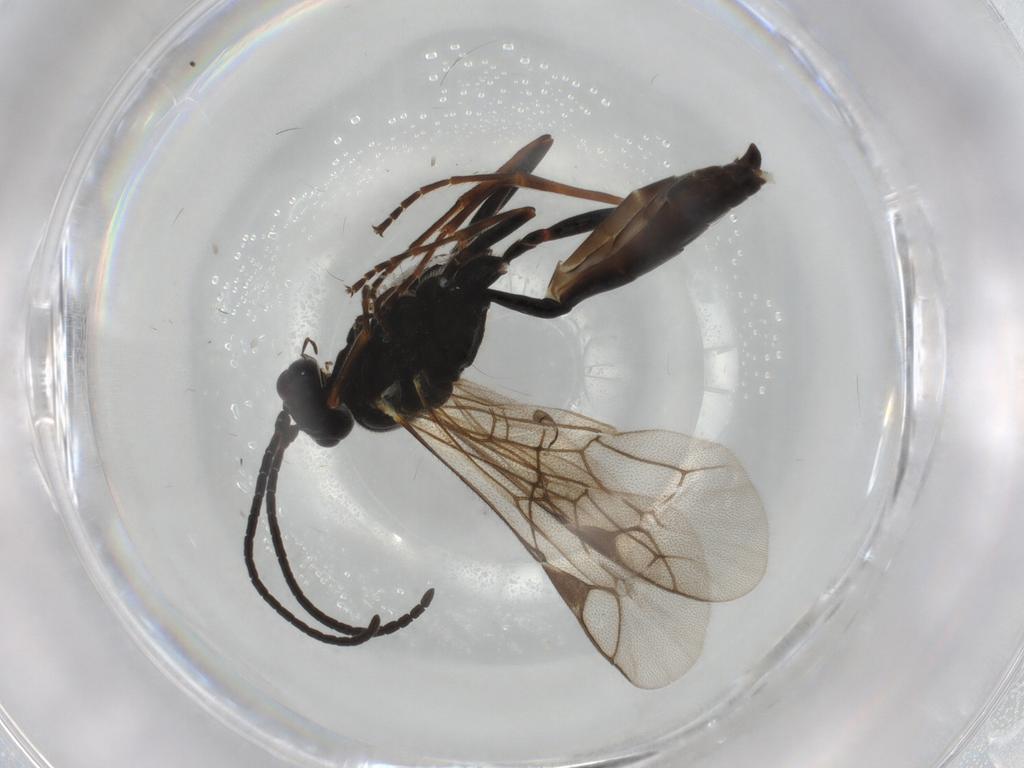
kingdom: Animalia
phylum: Arthropoda
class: Insecta
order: Hymenoptera
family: Ichneumonidae
